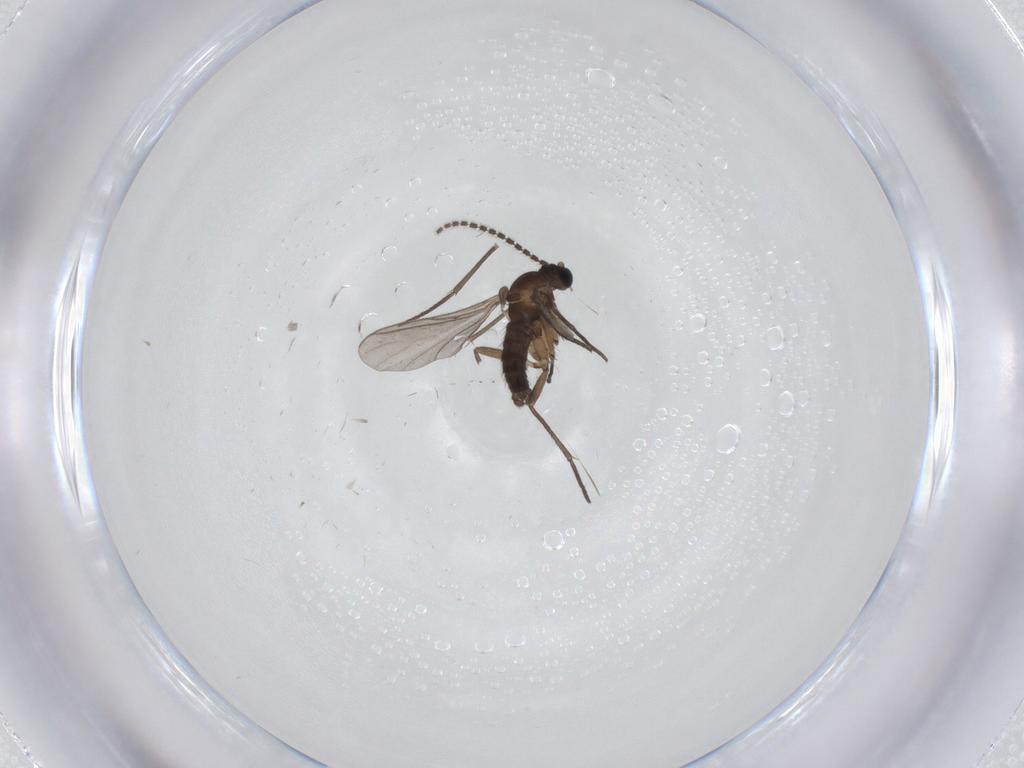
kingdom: Animalia
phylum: Arthropoda
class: Insecta
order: Diptera
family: Sciaridae
